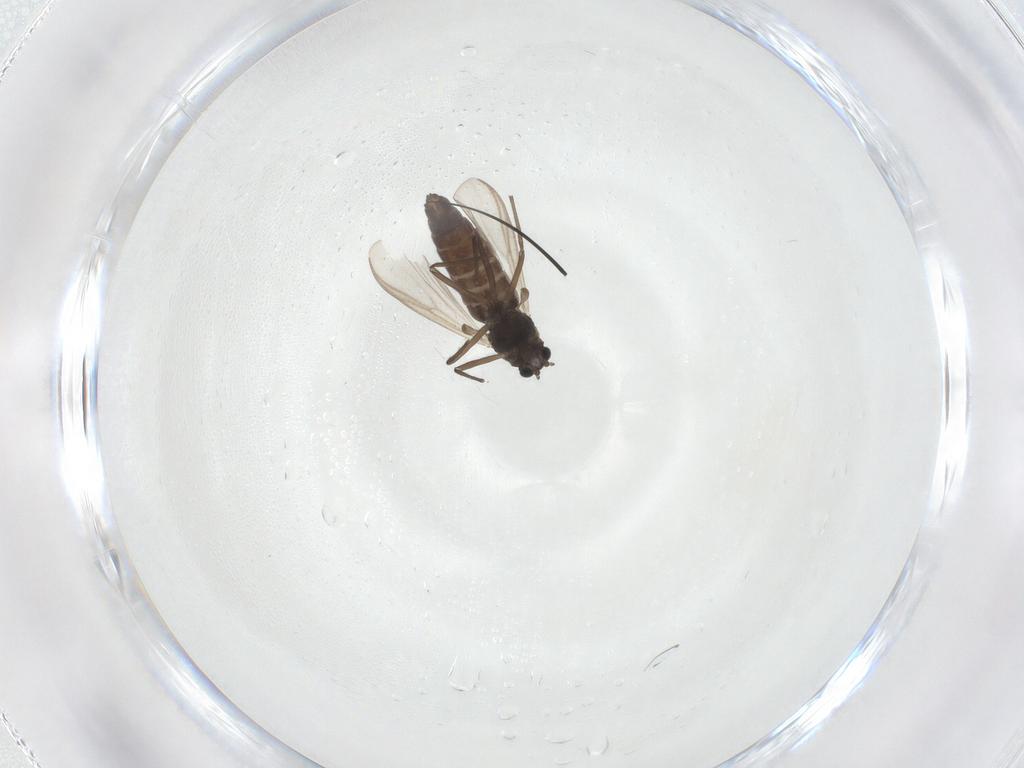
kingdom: Animalia
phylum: Arthropoda
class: Insecta
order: Diptera
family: Chironomidae
